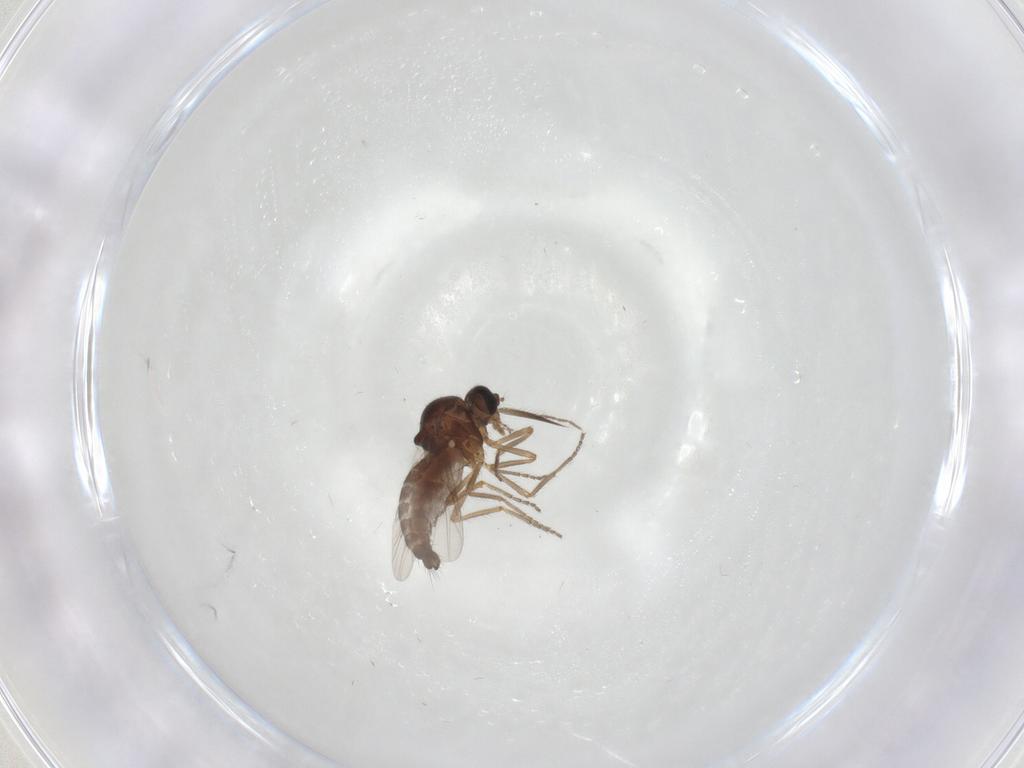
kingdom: Animalia
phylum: Arthropoda
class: Insecta
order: Diptera
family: Ceratopogonidae
